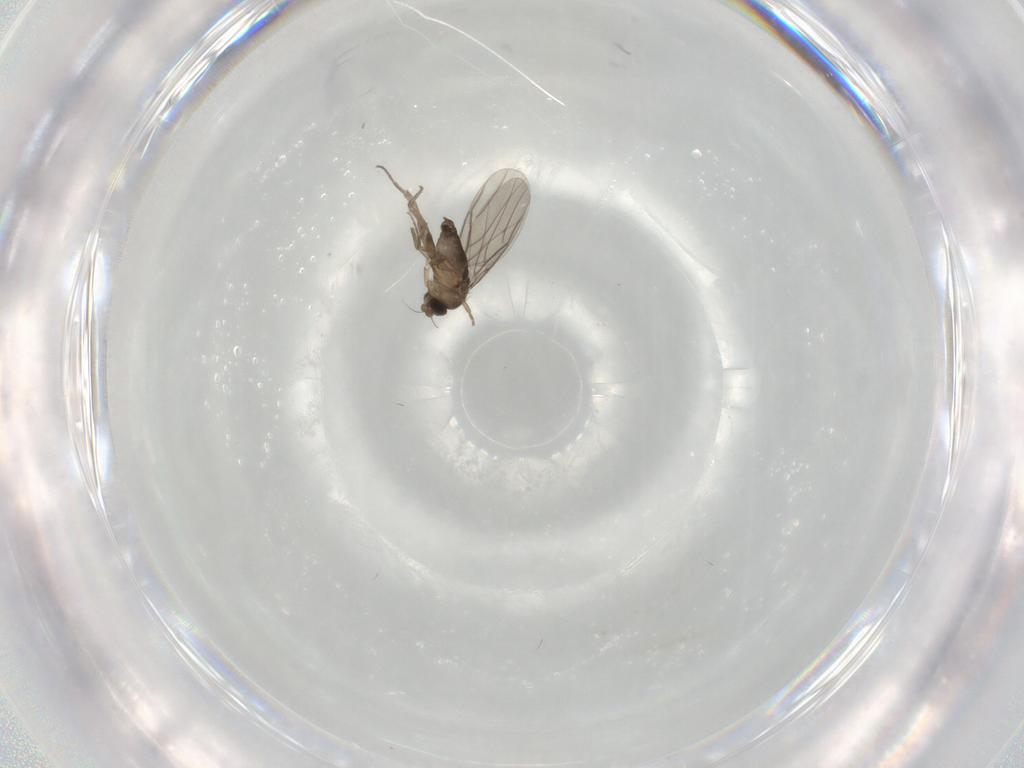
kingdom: Animalia
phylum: Arthropoda
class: Insecta
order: Diptera
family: Phoridae
